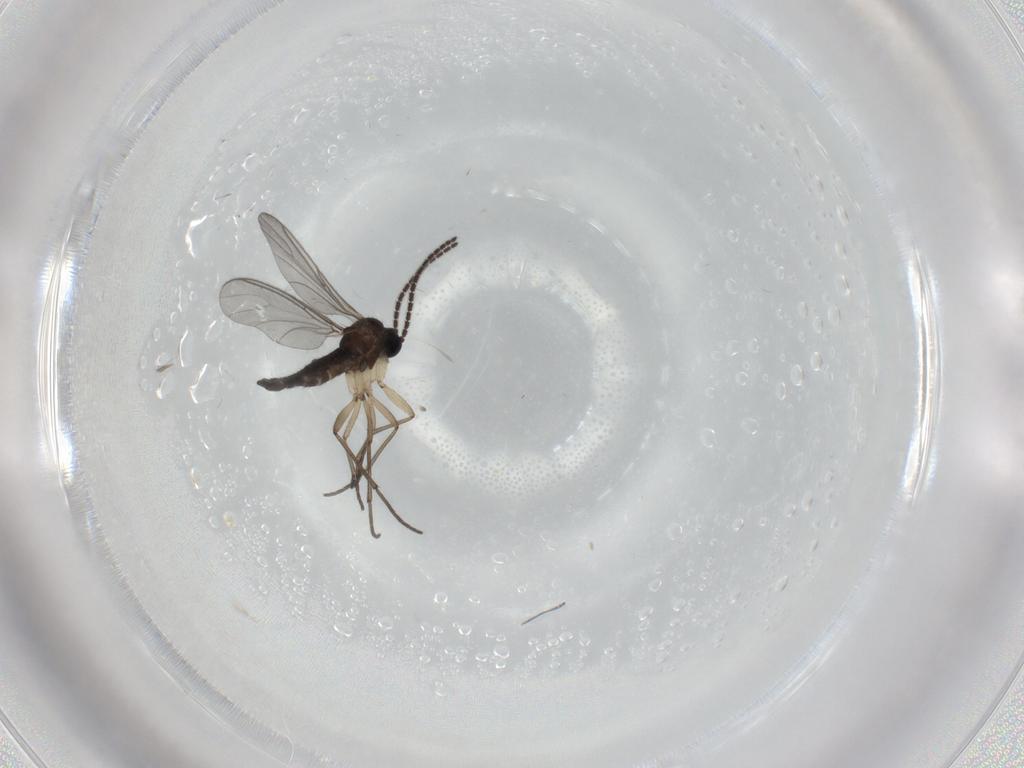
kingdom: Animalia
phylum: Arthropoda
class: Insecta
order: Diptera
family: Sciaridae
